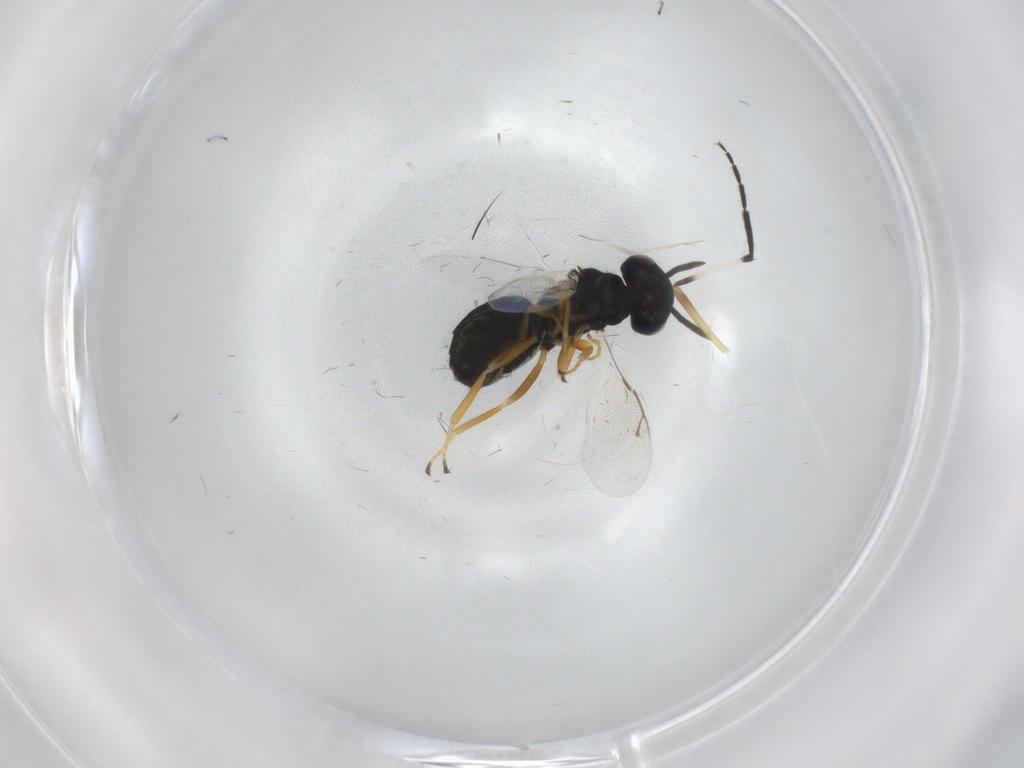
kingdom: Animalia
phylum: Arthropoda
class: Insecta
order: Hymenoptera
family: Pteromalidae
